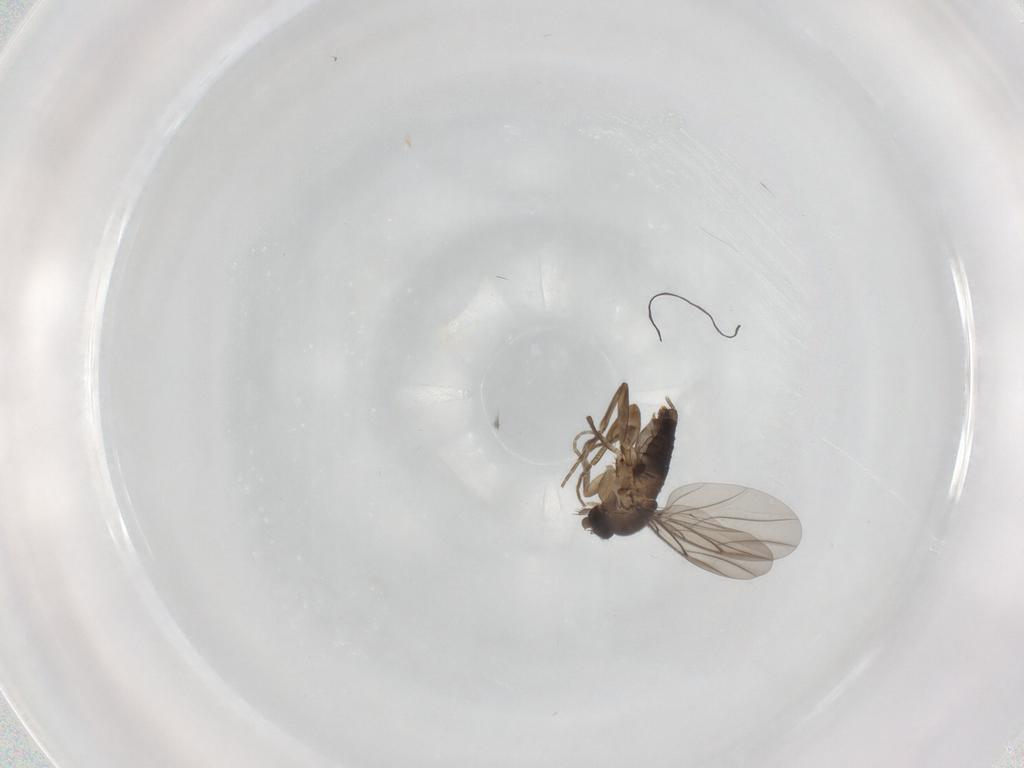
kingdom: Animalia
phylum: Arthropoda
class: Insecta
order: Diptera
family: Phoridae
